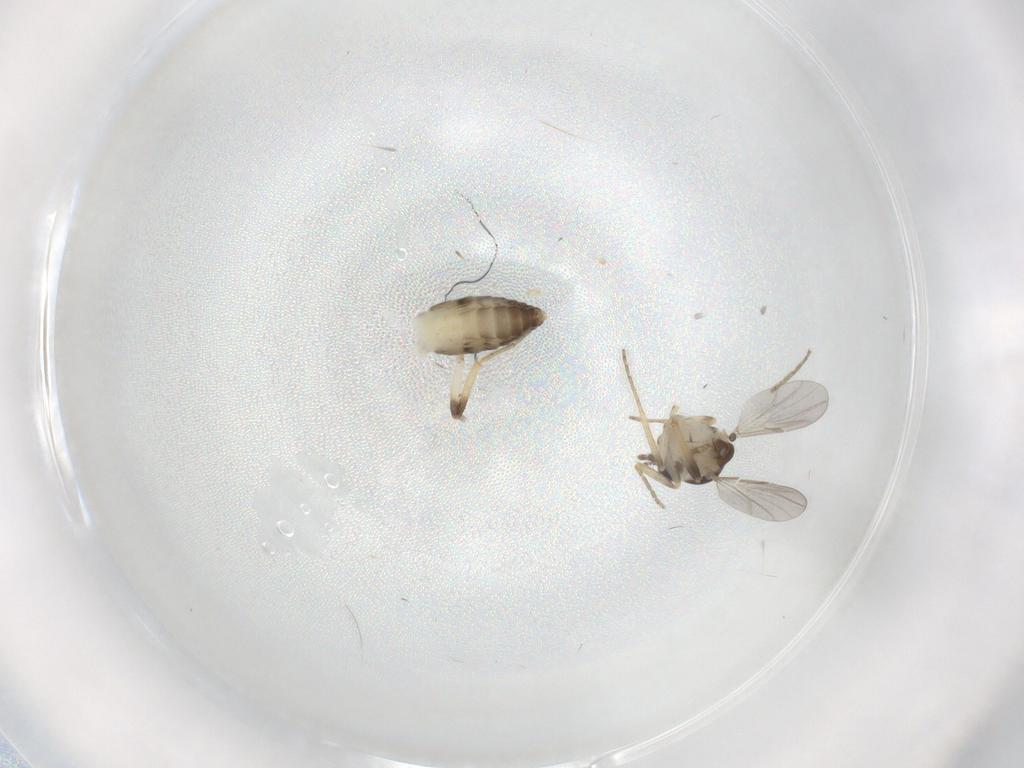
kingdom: Animalia
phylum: Arthropoda
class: Insecta
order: Diptera
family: Ceratopogonidae
